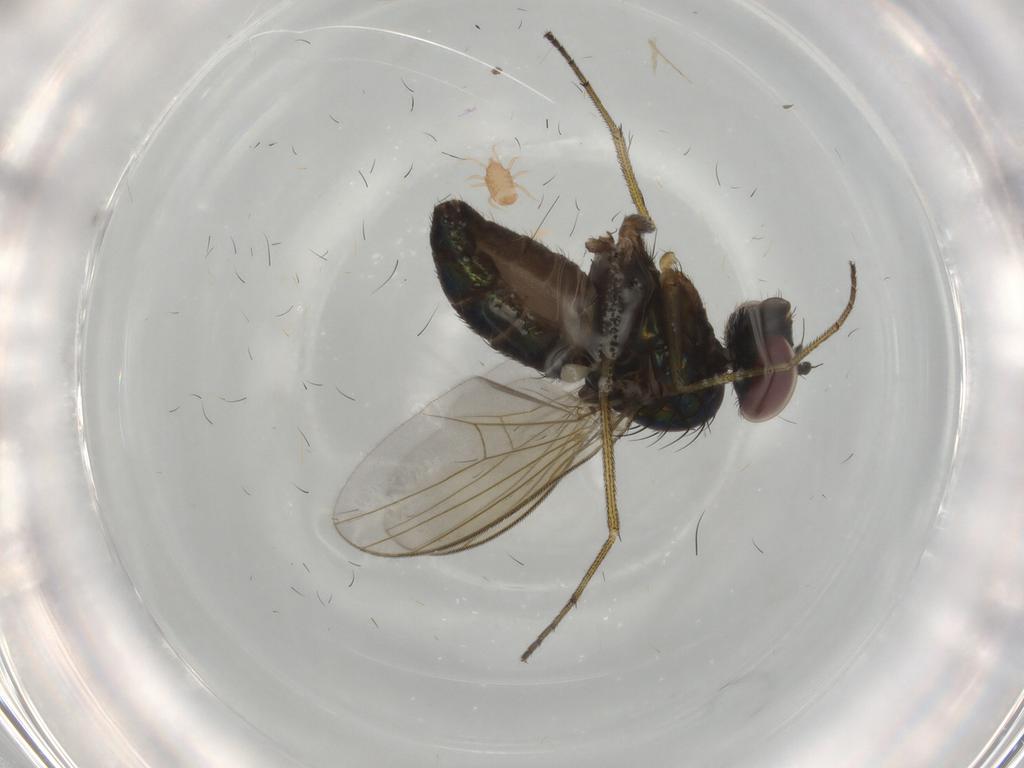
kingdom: Animalia
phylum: Arthropoda
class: Insecta
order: Diptera
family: Dolichopodidae
